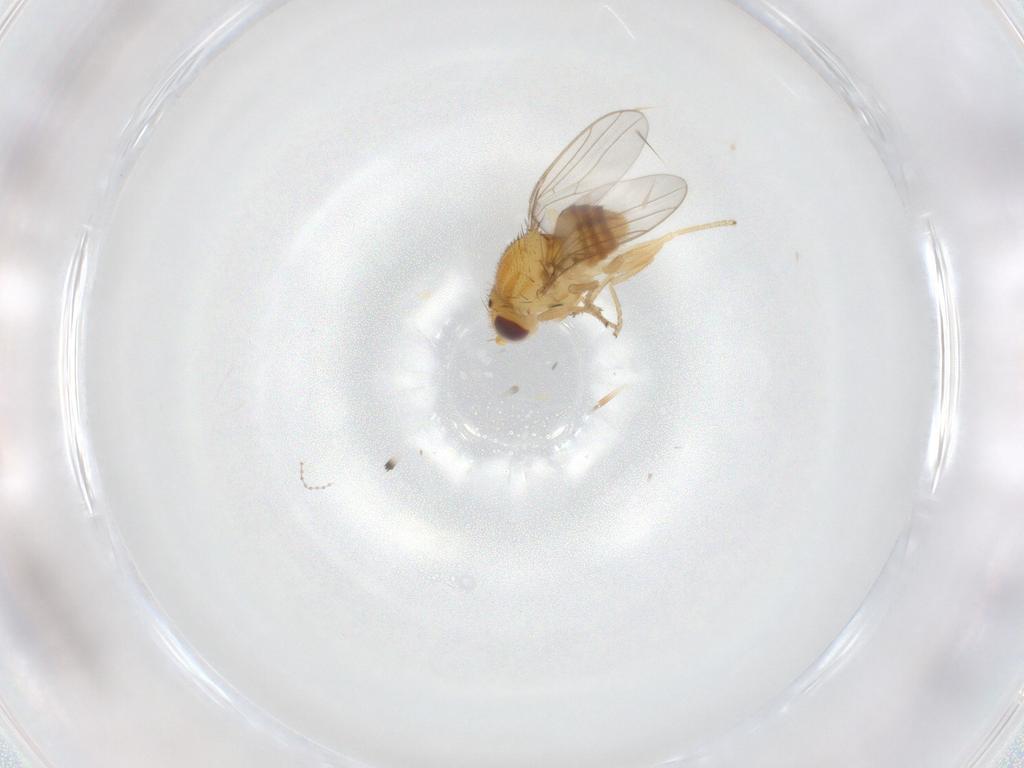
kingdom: Animalia
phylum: Arthropoda
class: Insecta
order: Diptera
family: Chloropidae
